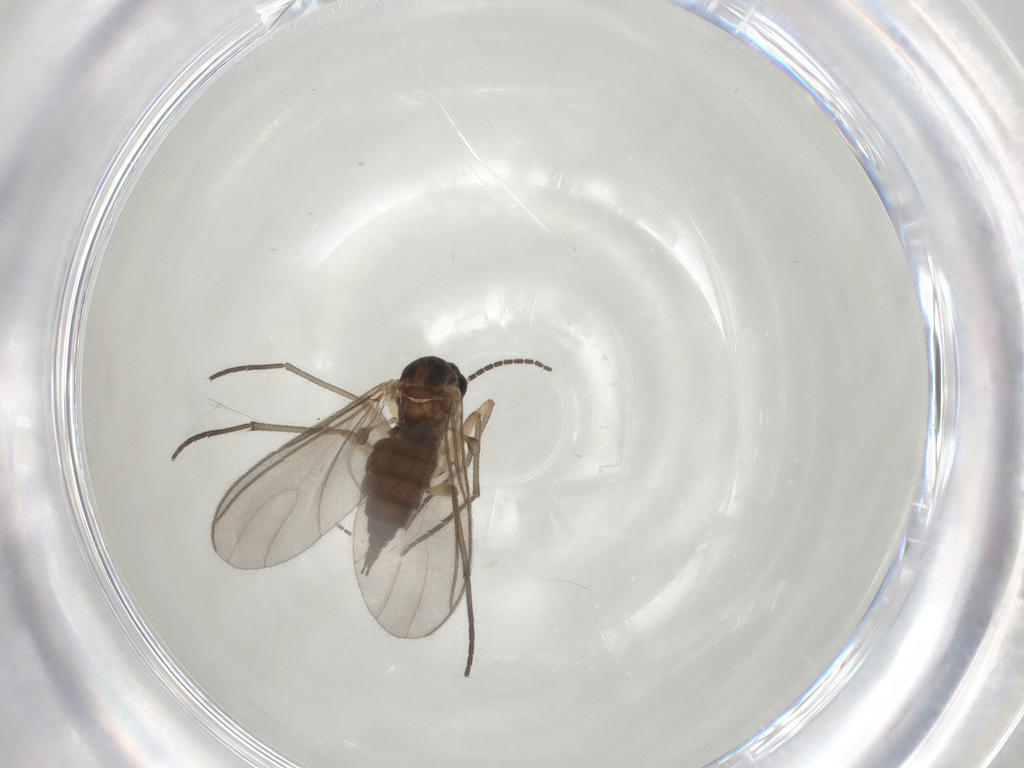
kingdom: Animalia
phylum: Arthropoda
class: Insecta
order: Diptera
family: Sciaridae
